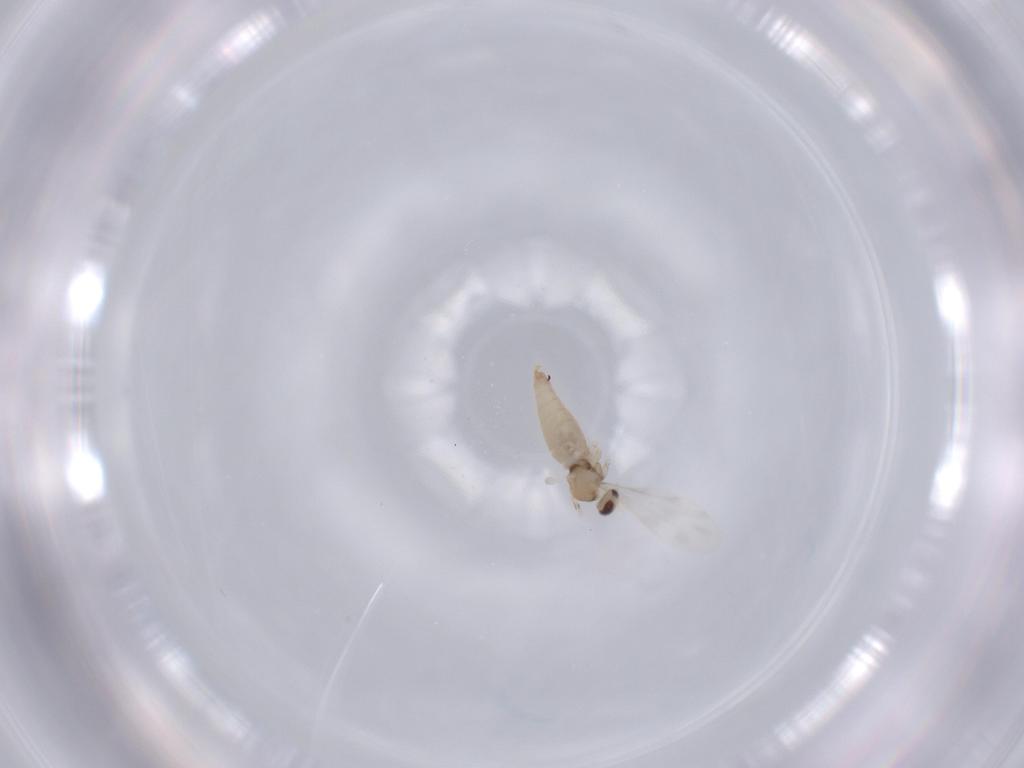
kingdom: Animalia
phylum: Arthropoda
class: Insecta
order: Diptera
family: Cecidomyiidae
